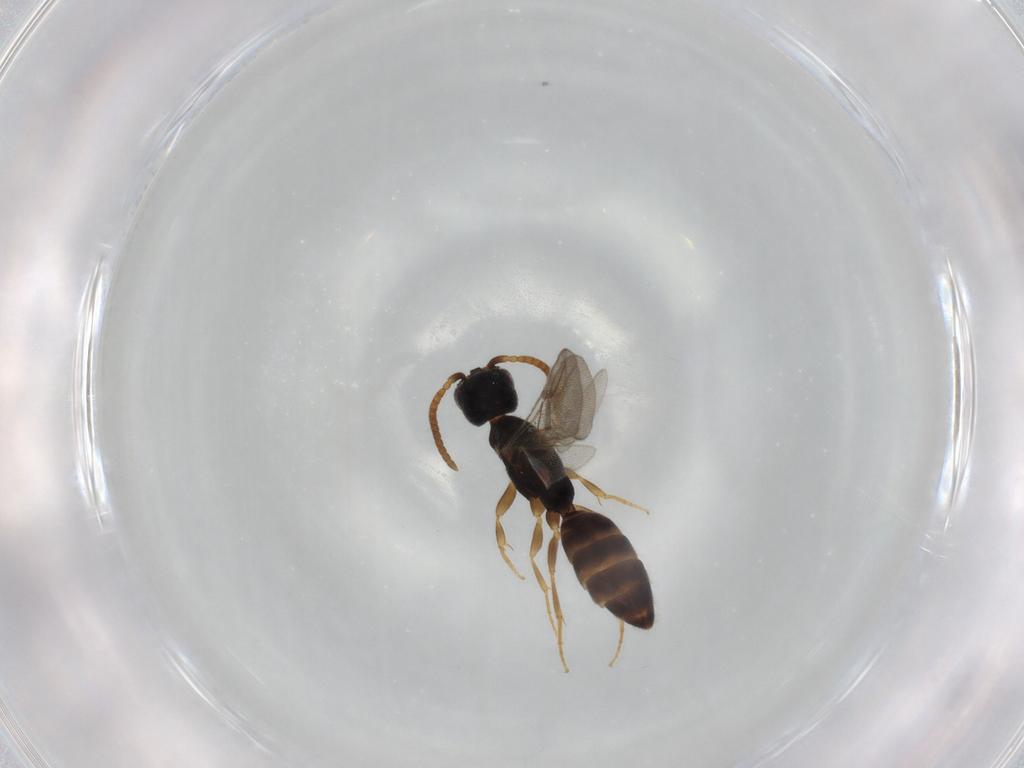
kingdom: Animalia
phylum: Arthropoda
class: Insecta
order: Hymenoptera
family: Bethylidae
